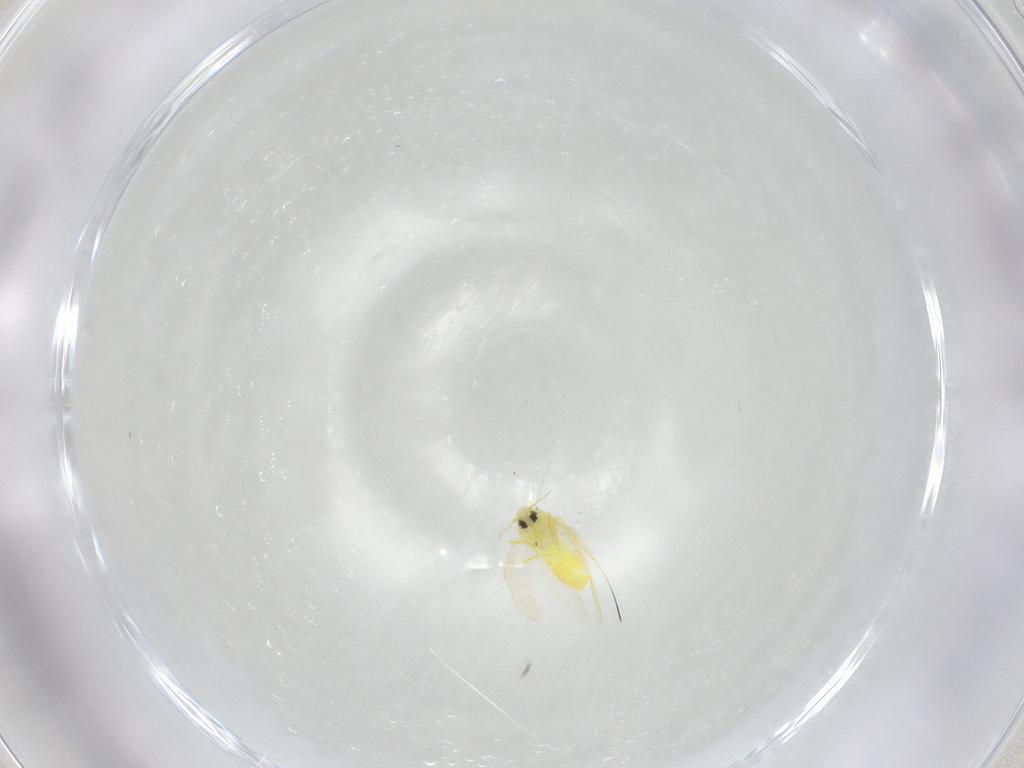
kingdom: Animalia
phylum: Arthropoda
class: Insecta
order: Hemiptera
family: Aleyrodidae
